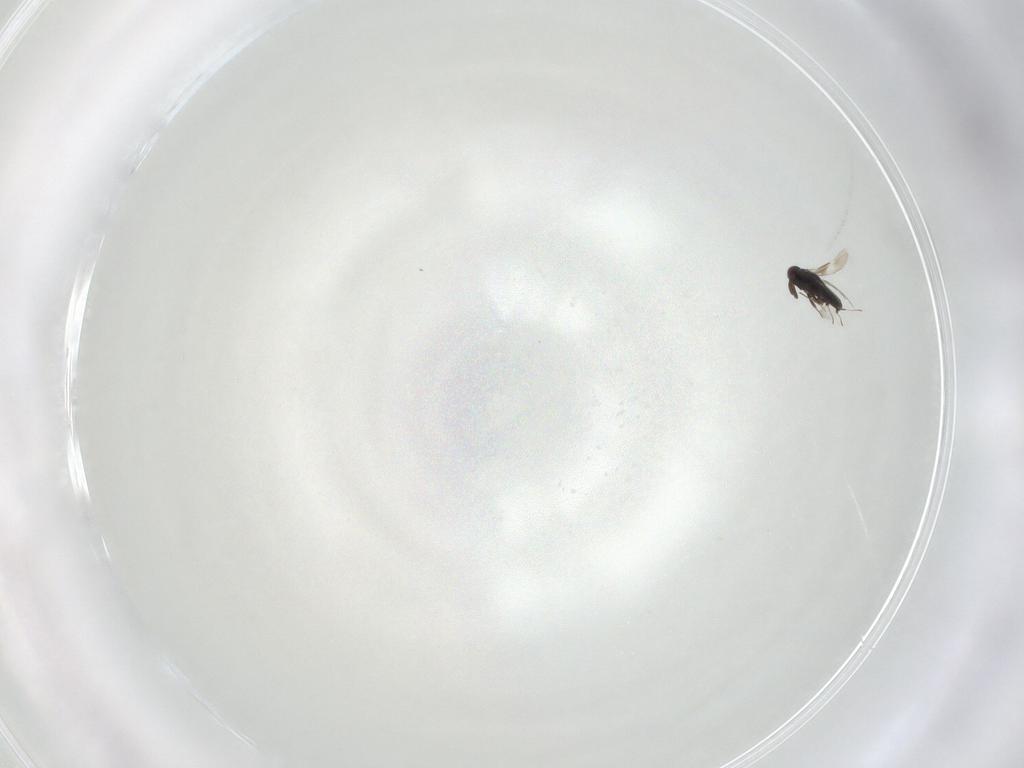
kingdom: Animalia
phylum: Arthropoda
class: Insecta
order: Hymenoptera
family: Signiphoridae
